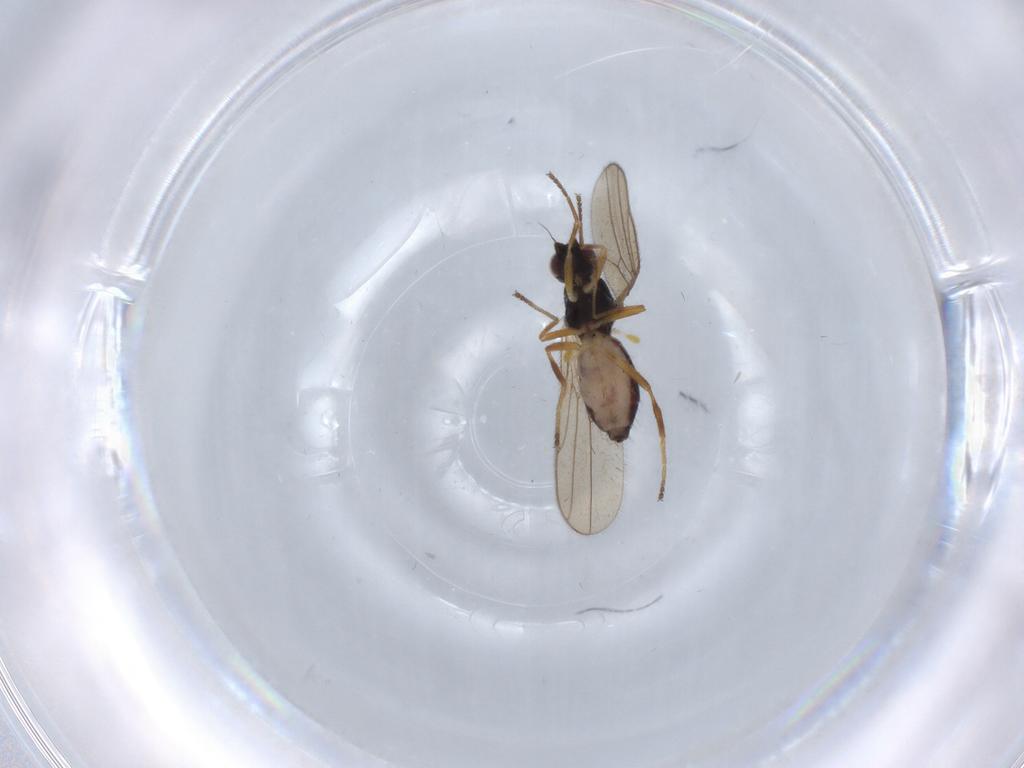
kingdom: Animalia
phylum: Arthropoda
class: Insecta
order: Diptera
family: Chloropidae
